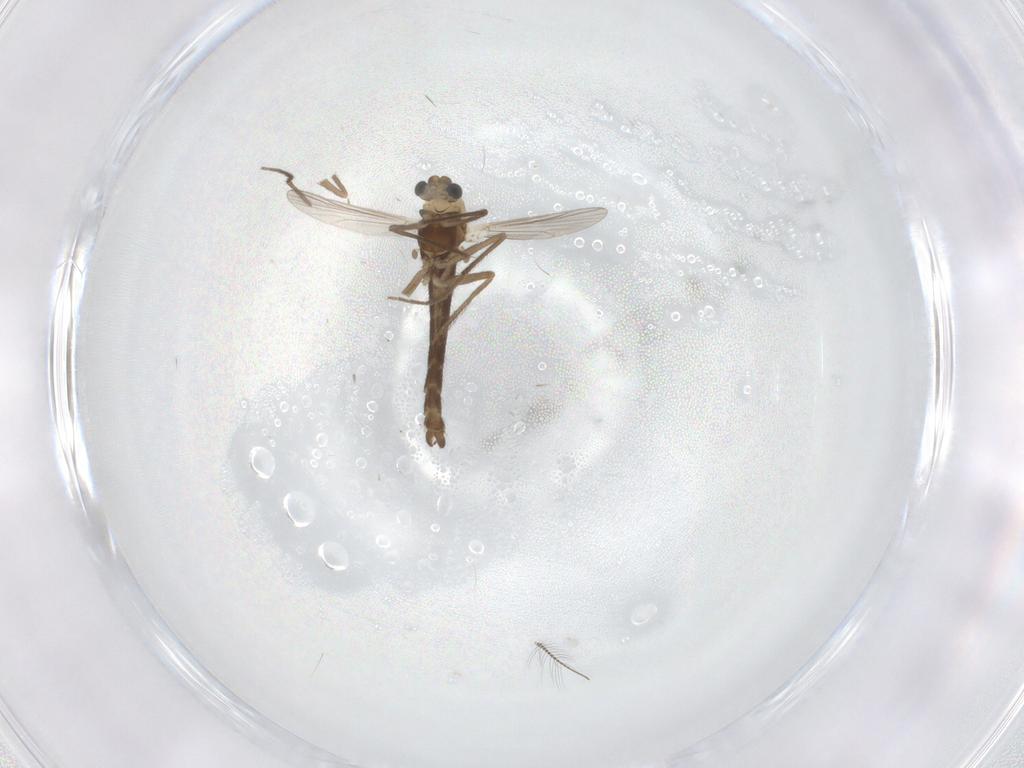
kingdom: Animalia
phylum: Arthropoda
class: Insecta
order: Diptera
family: Chironomidae
